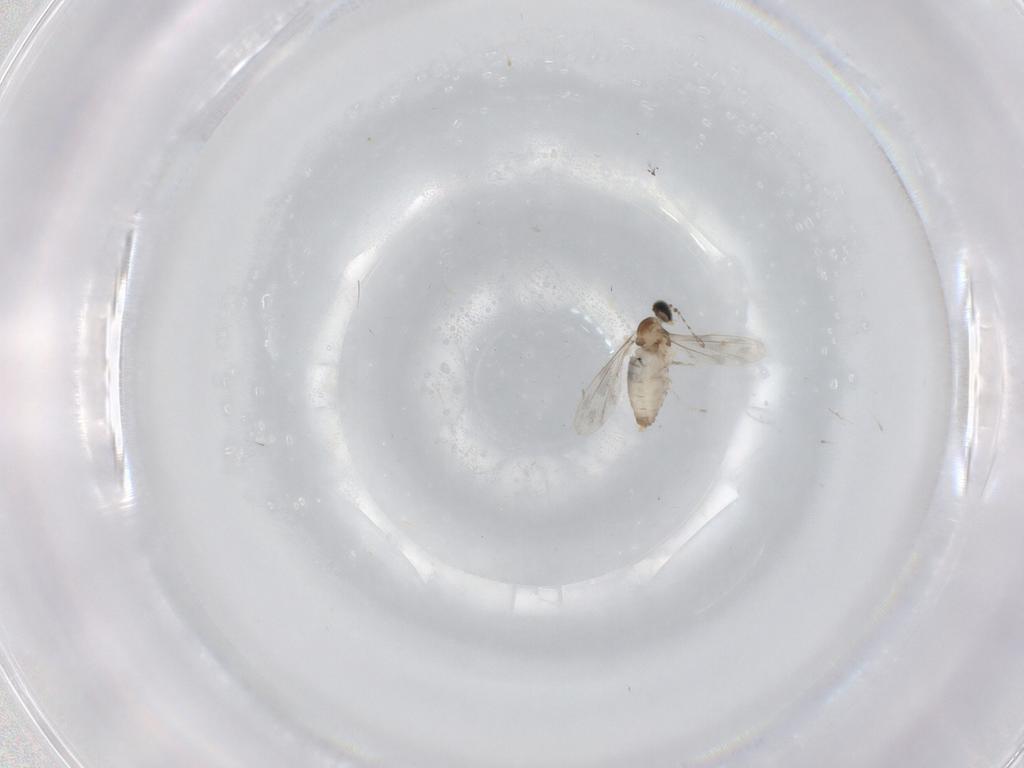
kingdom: Animalia
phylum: Arthropoda
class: Insecta
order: Diptera
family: Cecidomyiidae
